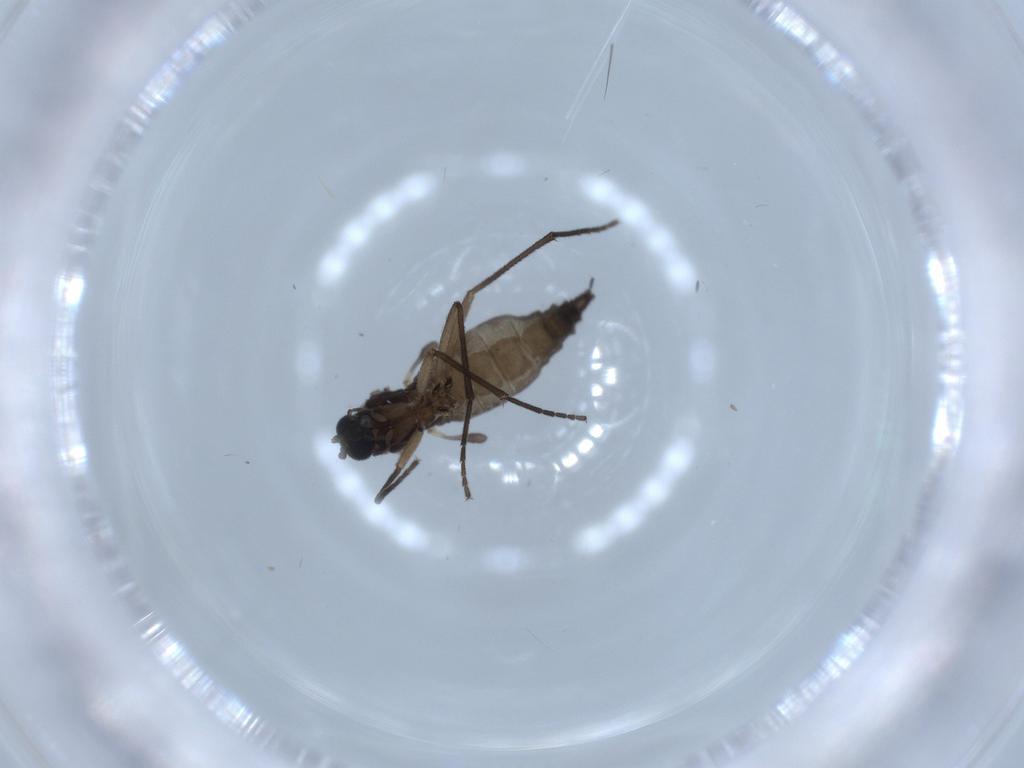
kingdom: Animalia
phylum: Arthropoda
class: Insecta
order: Diptera
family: Sciaridae
